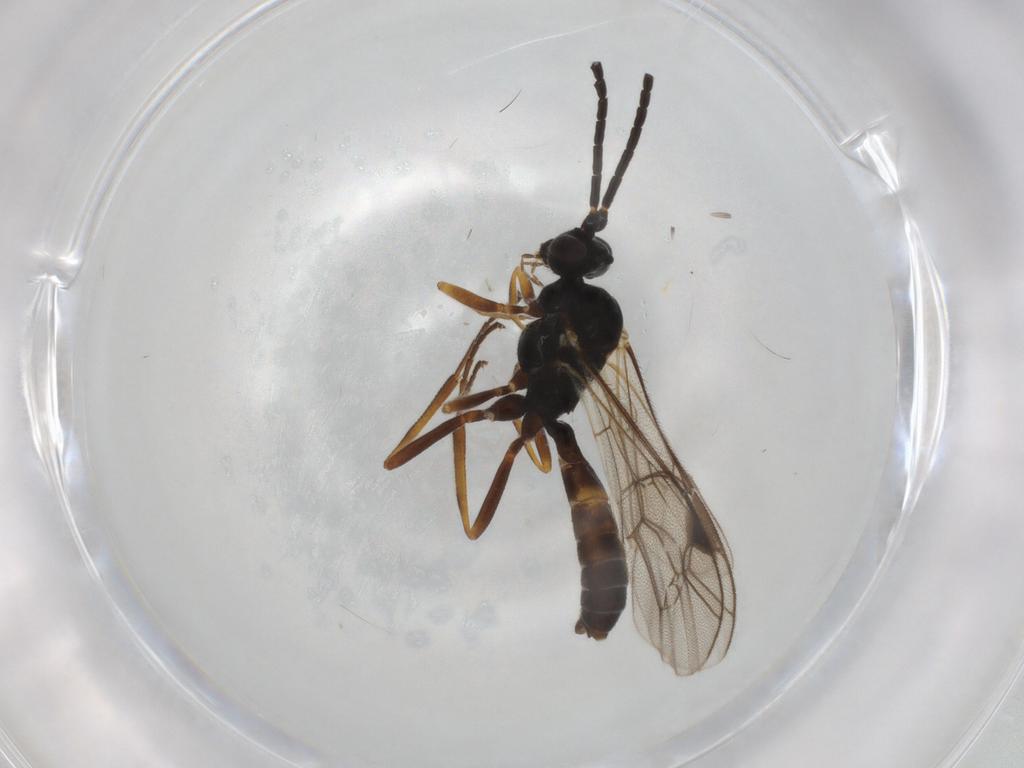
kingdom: Animalia
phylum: Arthropoda
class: Insecta
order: Hymenoptera
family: Ichneumonidae
